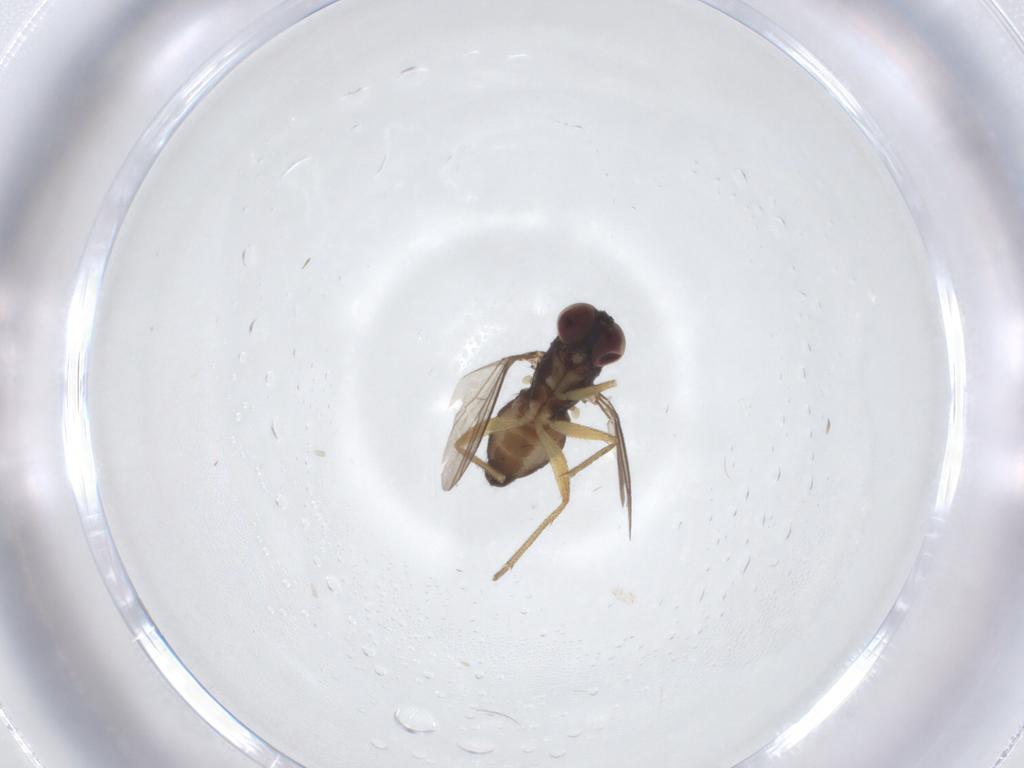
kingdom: Animalia
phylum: Arthropoda
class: Insecta
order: Diptera
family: Dolichopodidae
